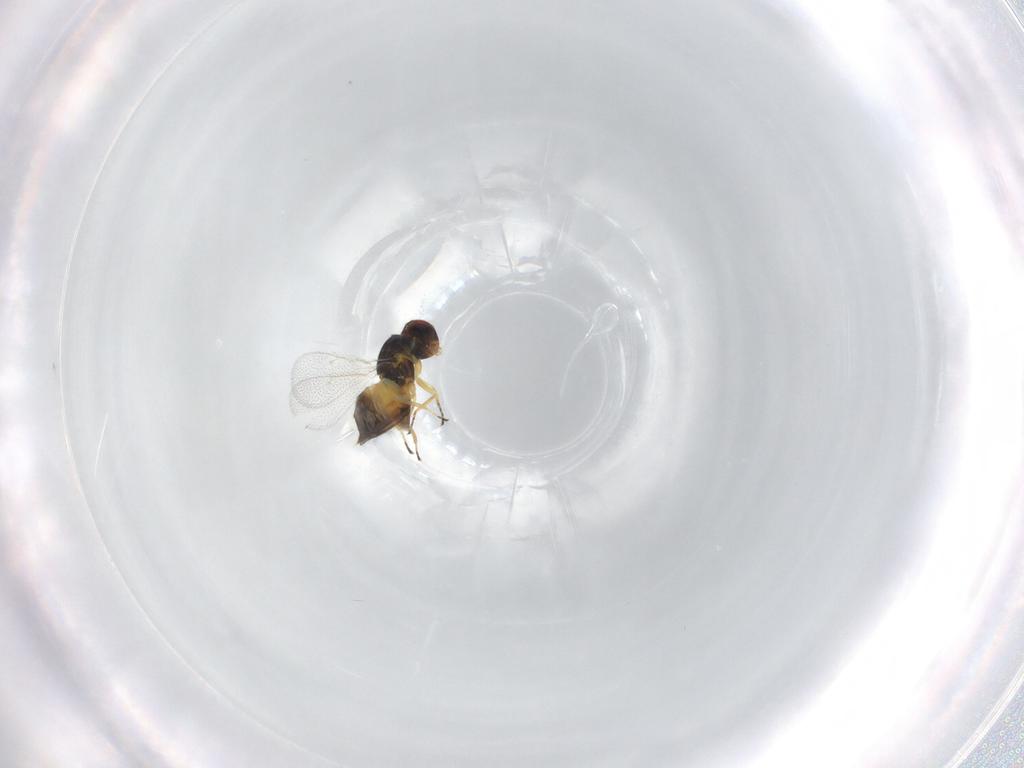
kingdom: Animalia
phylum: Arthropoda
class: Insecta
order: Hymenoptera
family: Eulophidae
